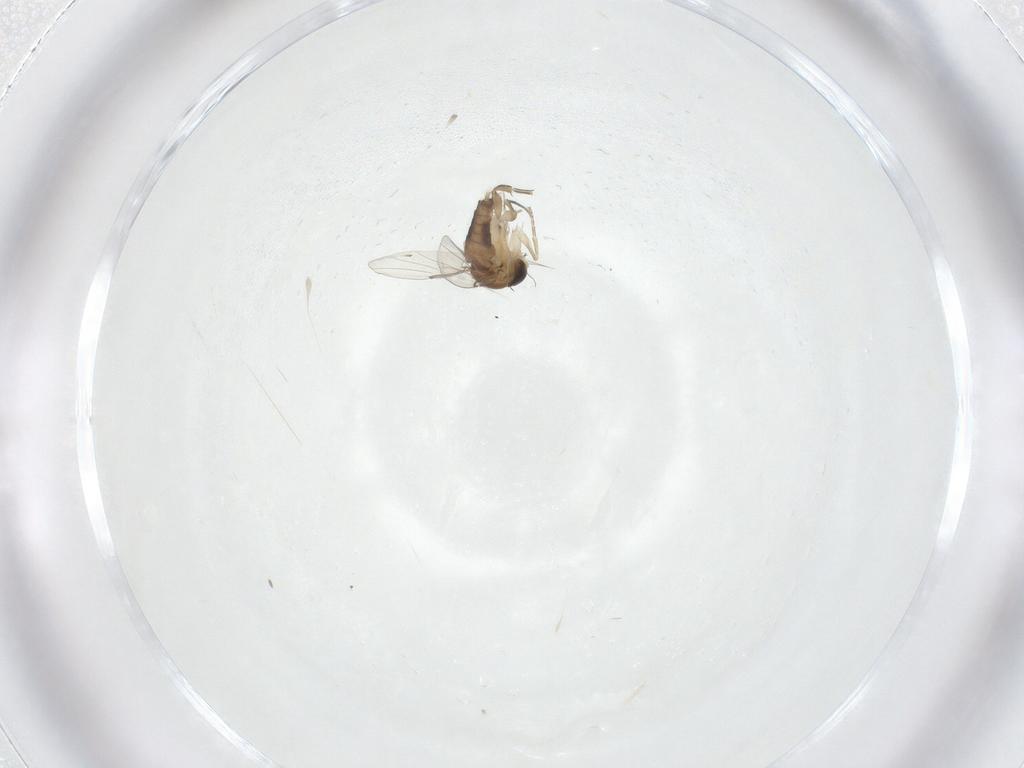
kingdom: Animalia
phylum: Arthropoda
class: Insecta
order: Diptera
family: Phoridae
